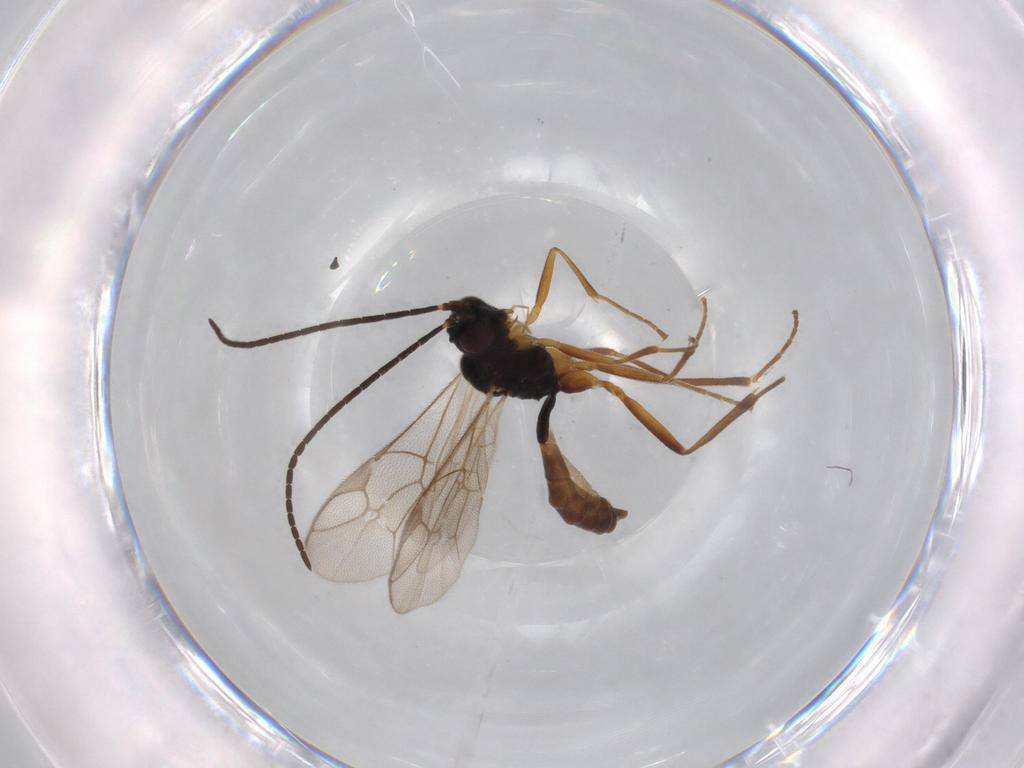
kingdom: Animalia
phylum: Arthropoda
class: Insecta
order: Hymenoptera
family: Ichneumonidae
